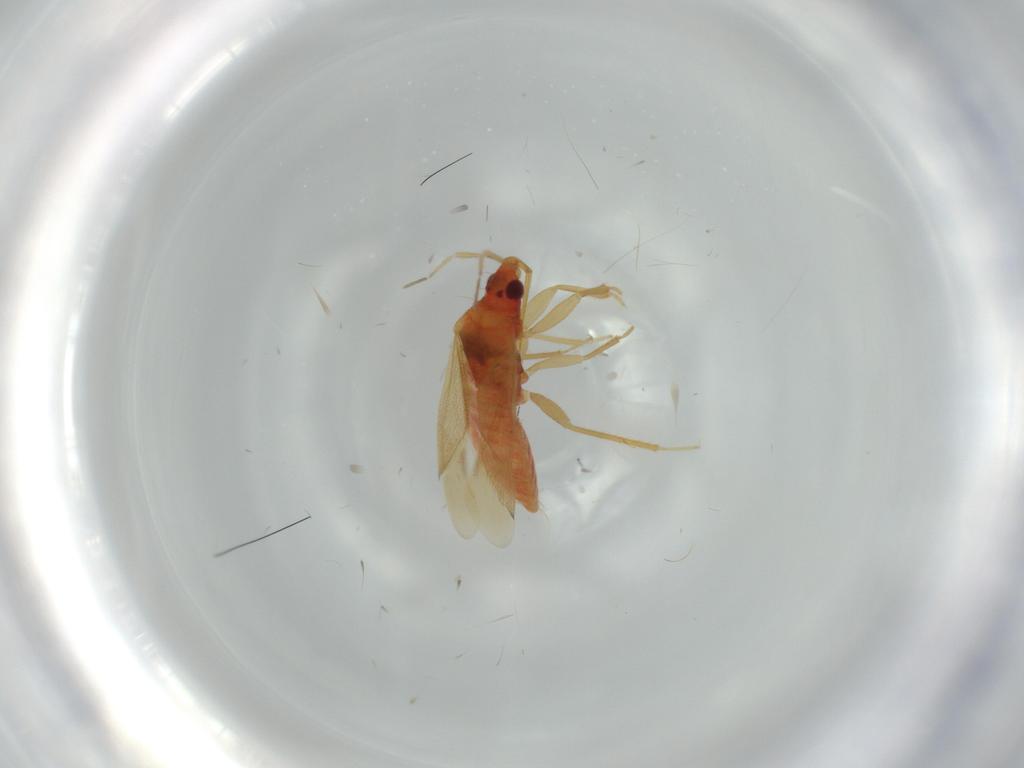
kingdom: Animalia
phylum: Arthropoda
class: Insecta
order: Hemiptera
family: Anthocoridae
